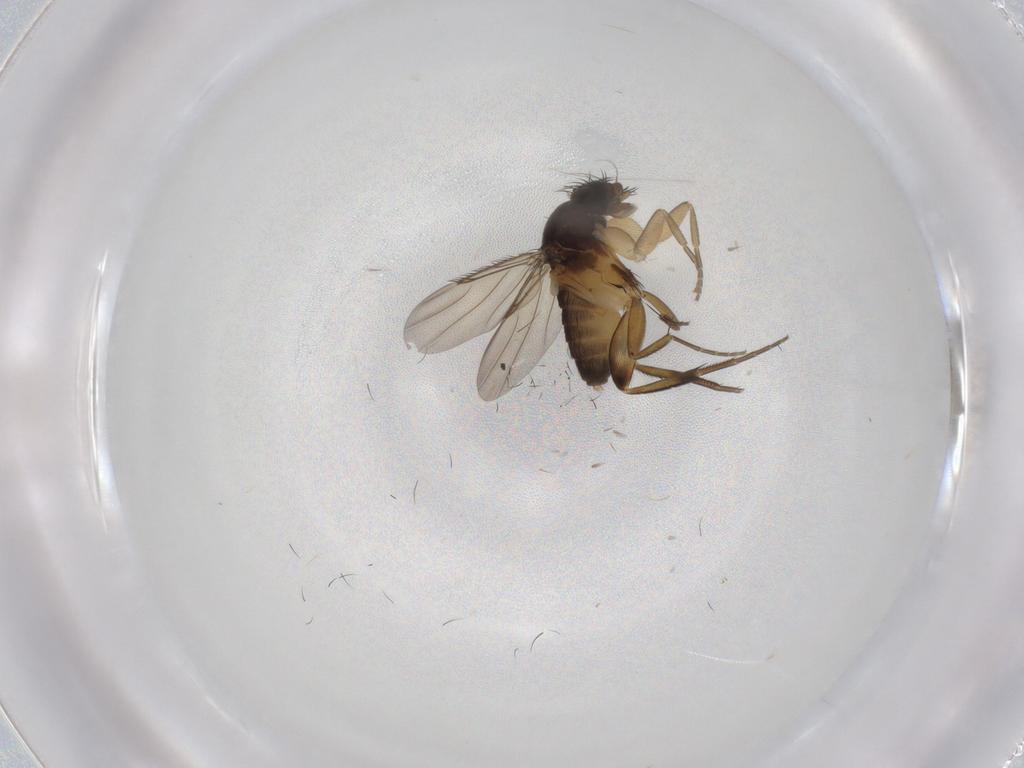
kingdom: Animalia
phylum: Arthropoda
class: Insecta
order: Diptera
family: Phoridae
